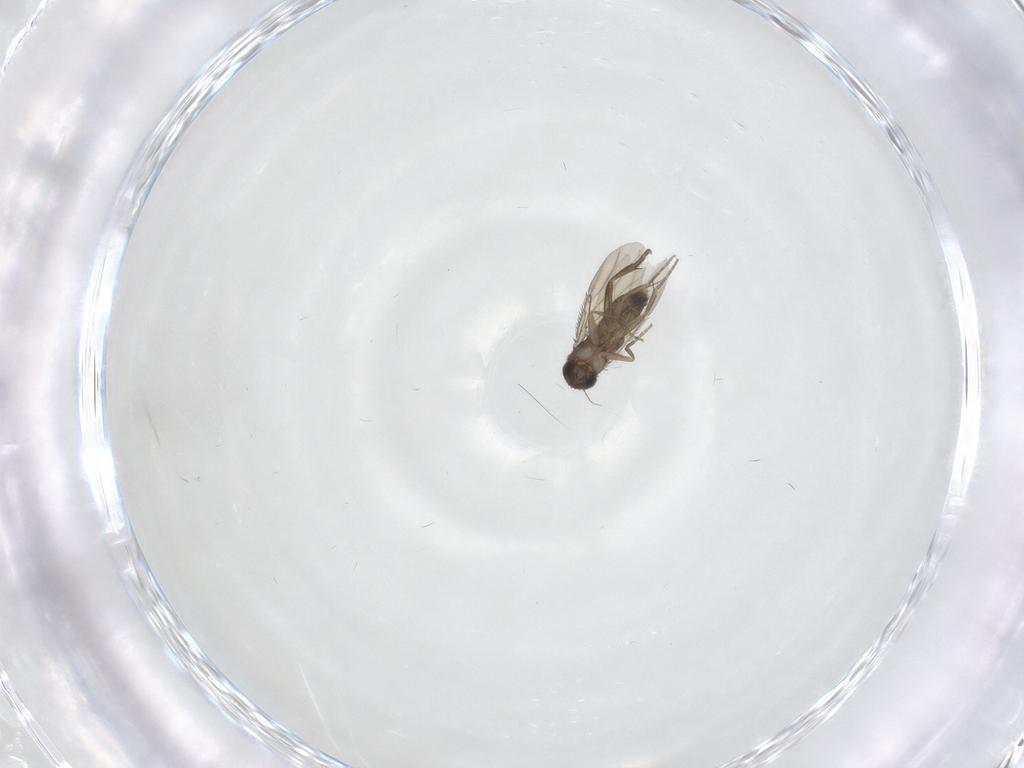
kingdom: Animalia
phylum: Arthropoda
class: Insecta
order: Diptera
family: Phoridae
